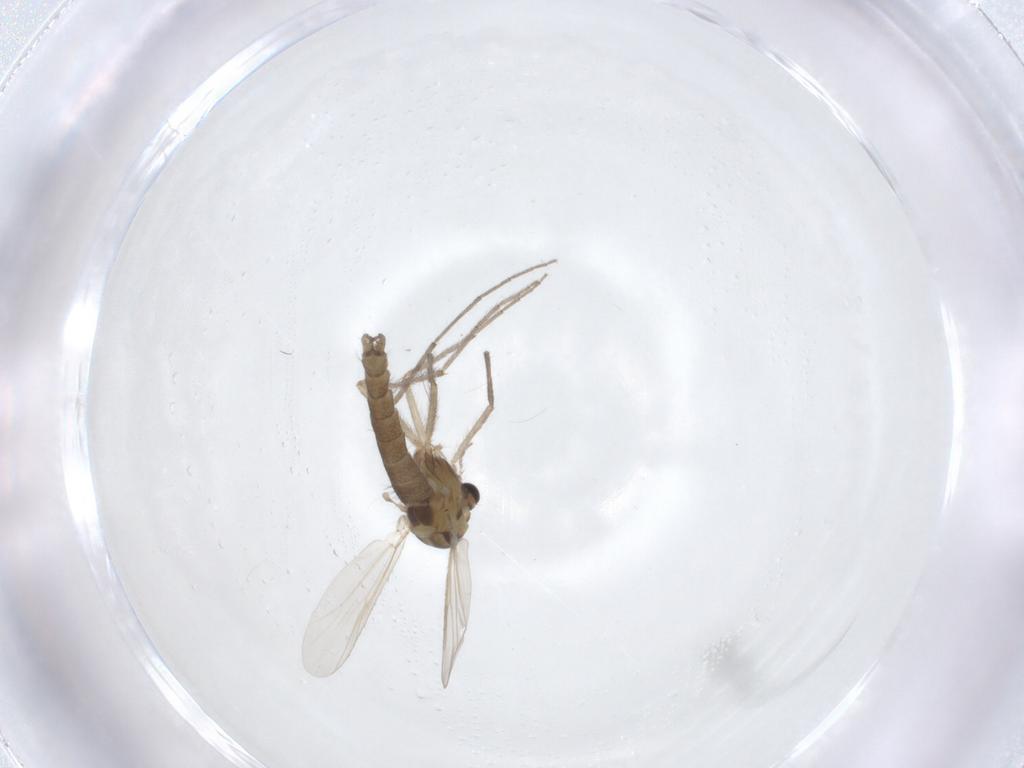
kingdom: Animalia
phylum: Arthropoda
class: Insecta
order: Diptera
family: Chironomidae
